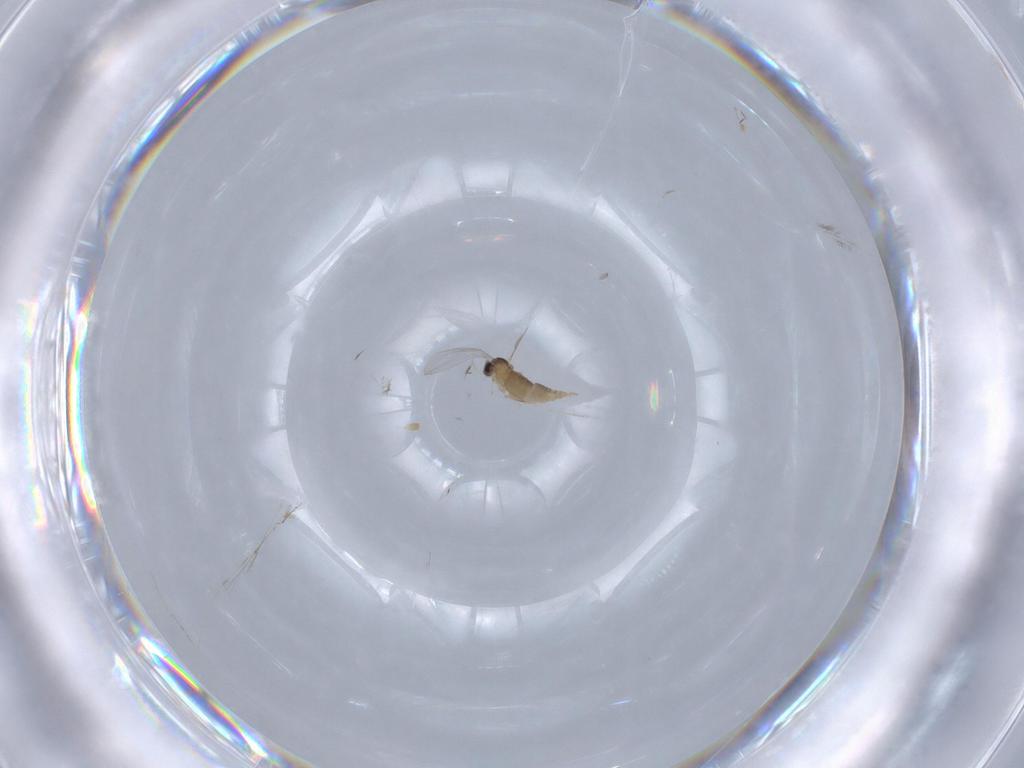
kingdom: Animalia
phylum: Arthropoda
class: Insecta
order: Diptera
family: Cecidomyiidae
